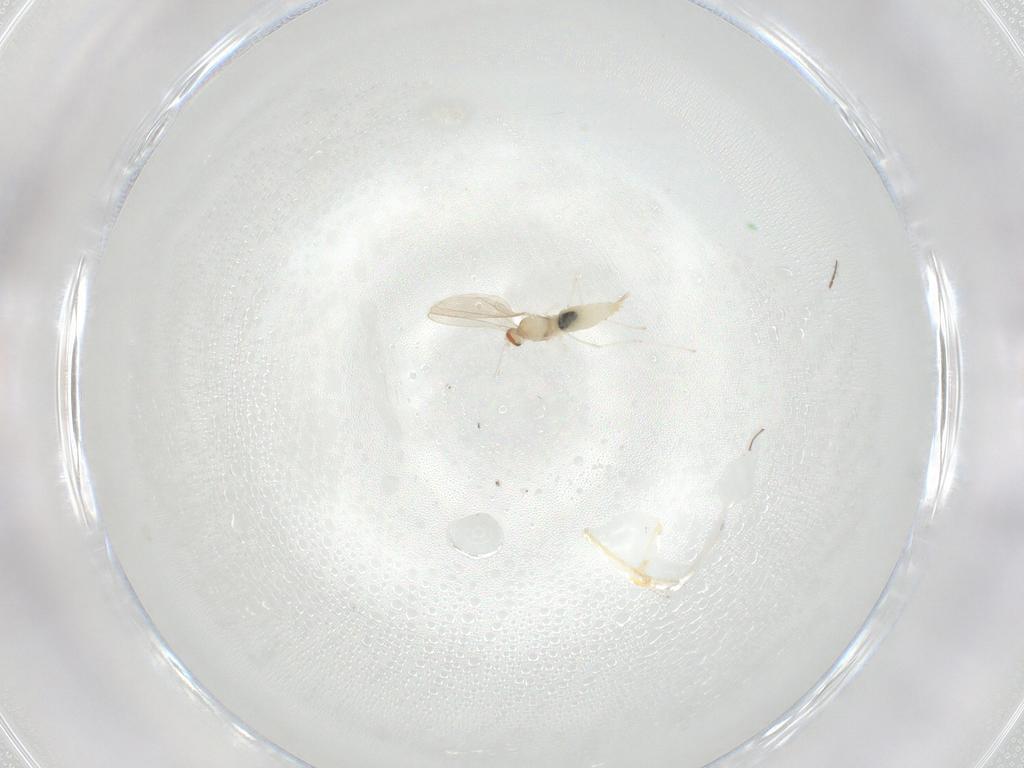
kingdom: Animalia
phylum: Arthropoda
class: Insecta
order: Diptera
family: Ceratopogonidae
